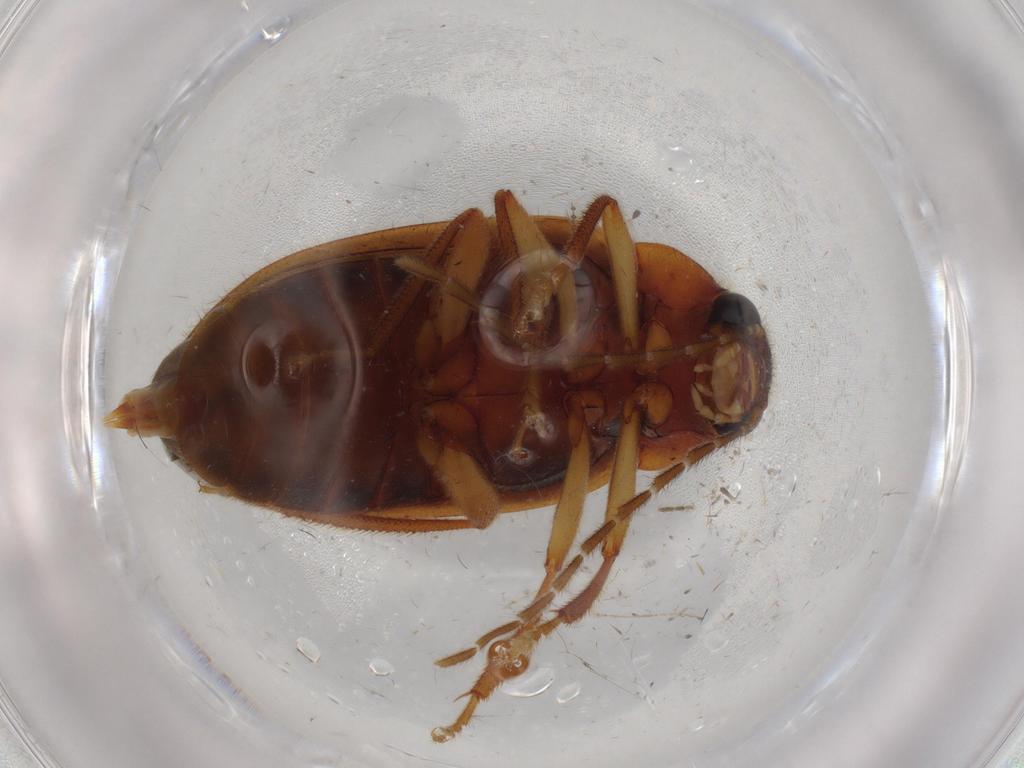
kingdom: Animalia
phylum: Arthropoda
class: Insecta
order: Coleoptera
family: Ptilodactylidae
